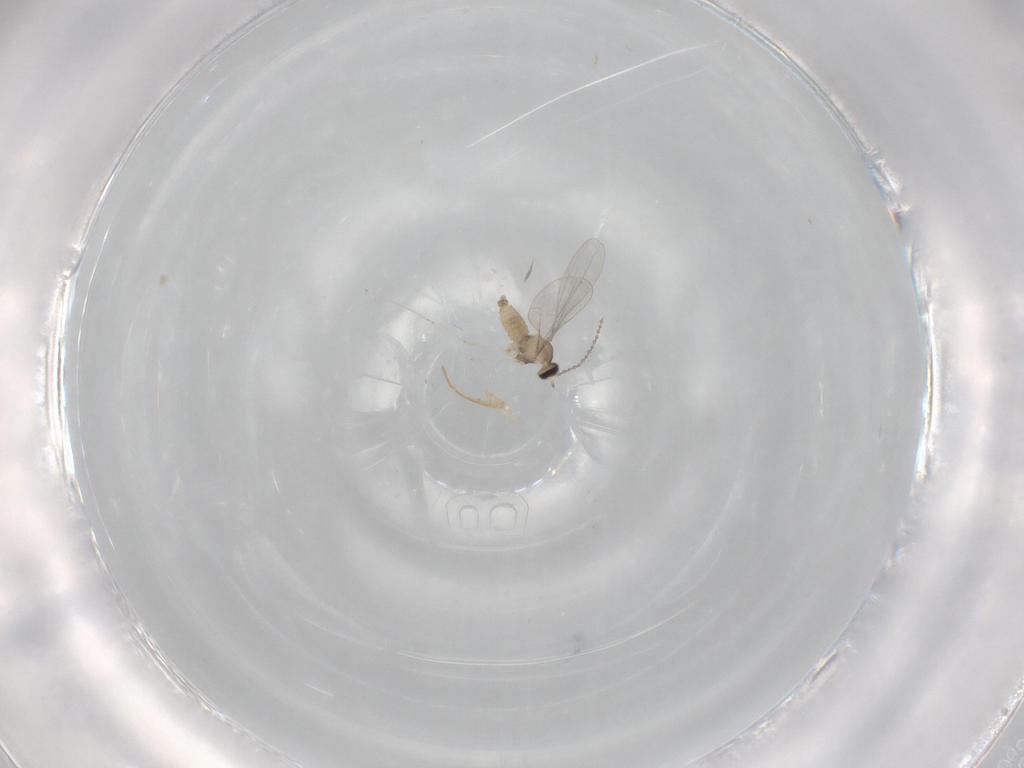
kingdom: Animalia
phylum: Arthropoda
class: Insecta
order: Diptera
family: Cecidomyiidae
